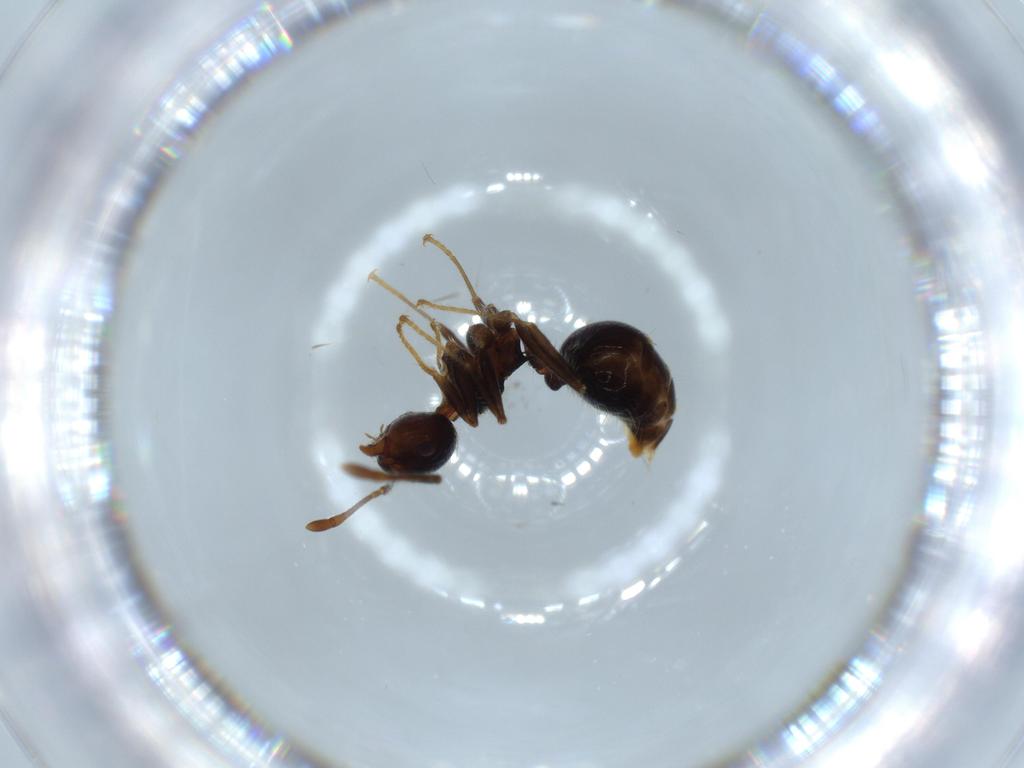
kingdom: Animalia
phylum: Arthropoda
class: Insecta
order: Hymenoptera
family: Formicidae
